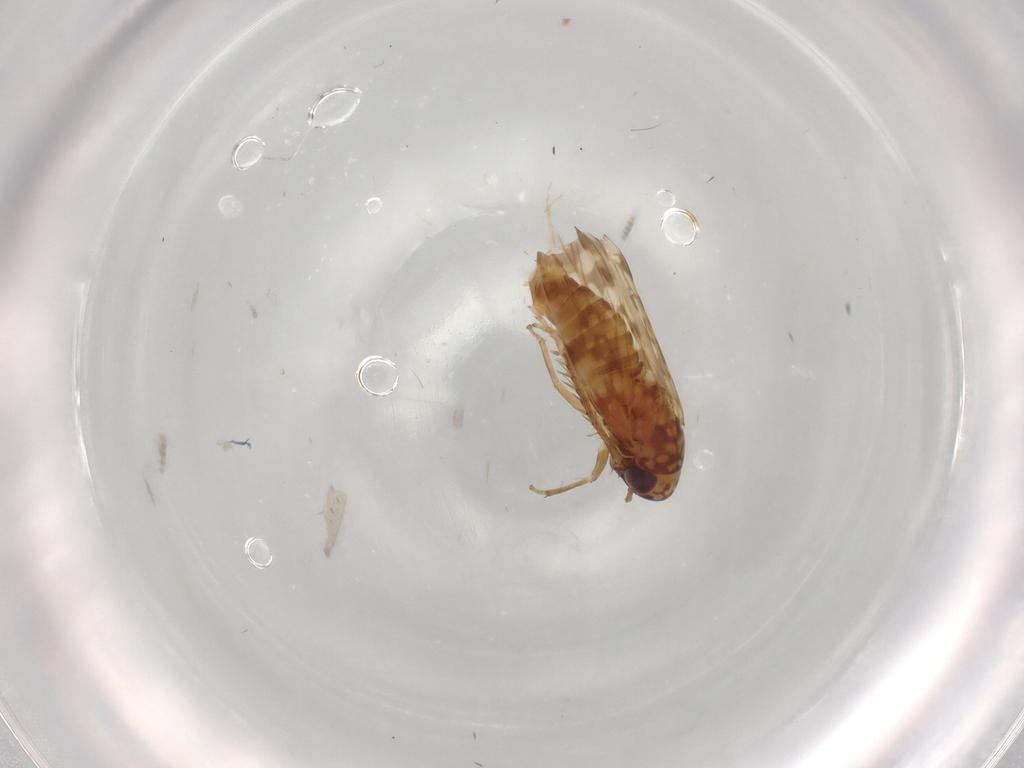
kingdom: Animalia
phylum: Arthropoda
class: Insecta
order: Hemiptera
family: Cicadellidae
